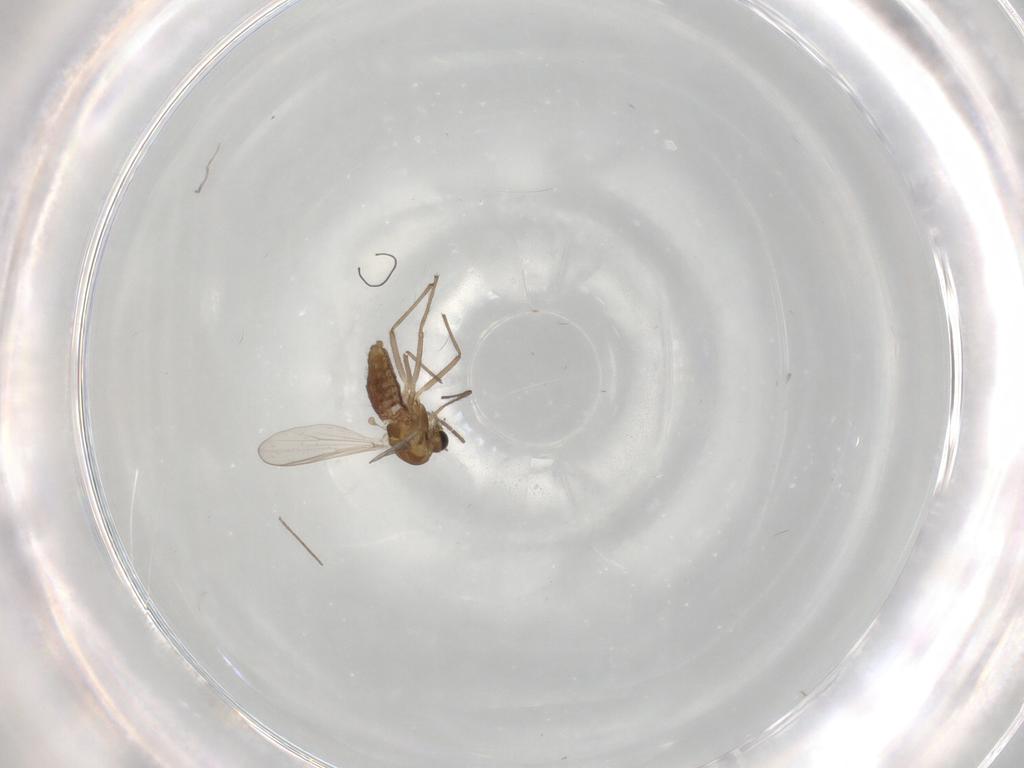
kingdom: Animalia
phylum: Arthropoda
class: Insecta
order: Diptera
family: Chironomidae
